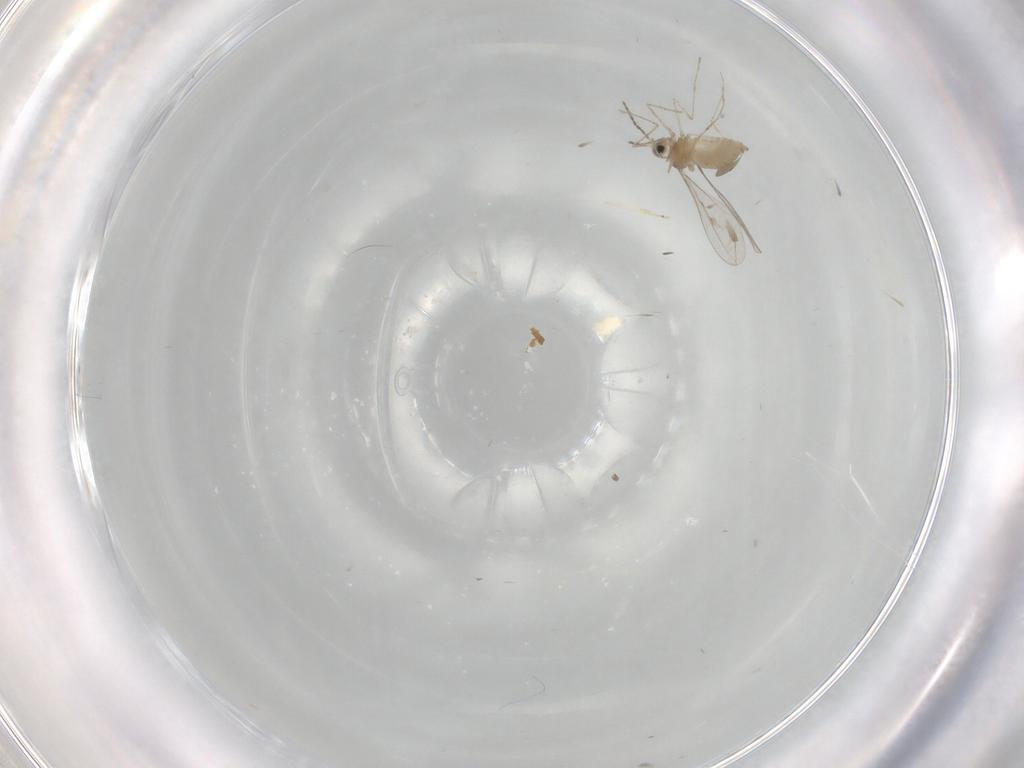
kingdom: Animalia
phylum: Arthropoda
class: Insecta
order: Diptera
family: Cecidomyiidae
